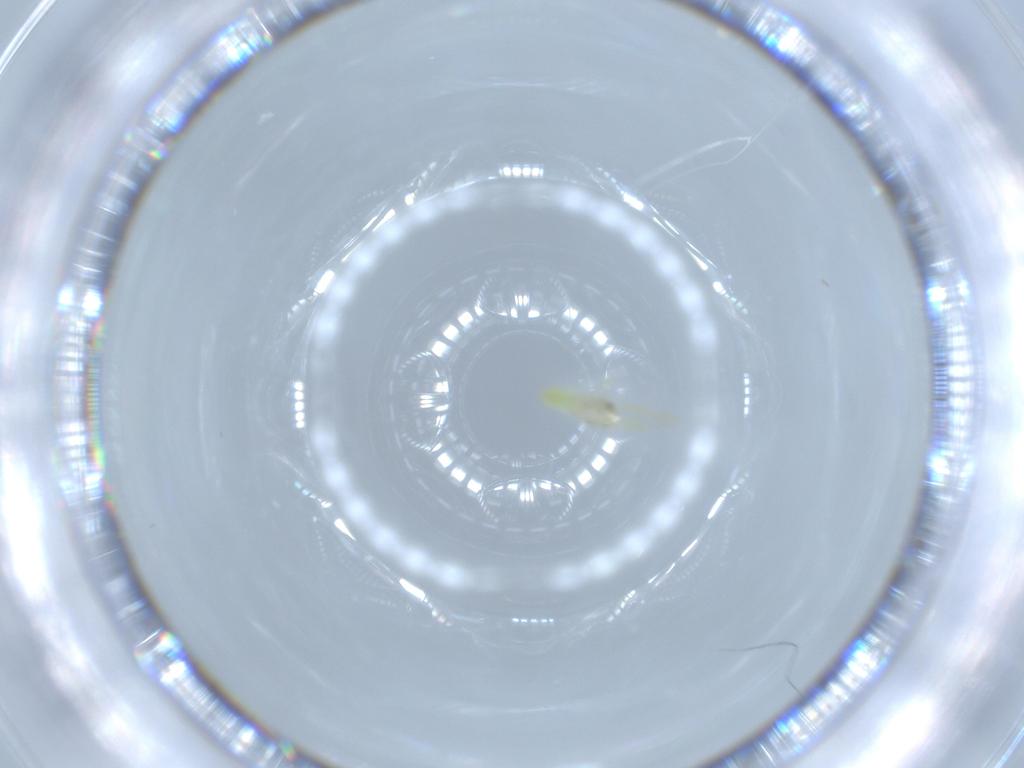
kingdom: Animalia
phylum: Arthropoda
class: Insecta
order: Hemiptera
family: Aleyrodidae
